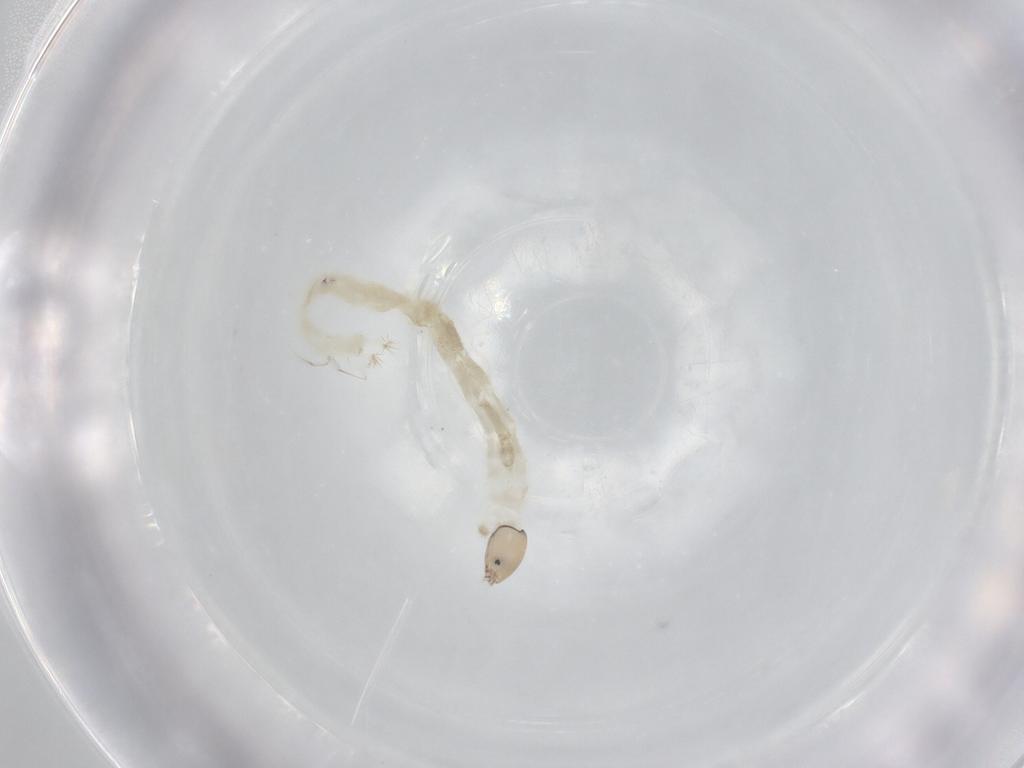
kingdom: Animalia
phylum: Arthropoda
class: Insecta
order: Diptera
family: Chironomidae
